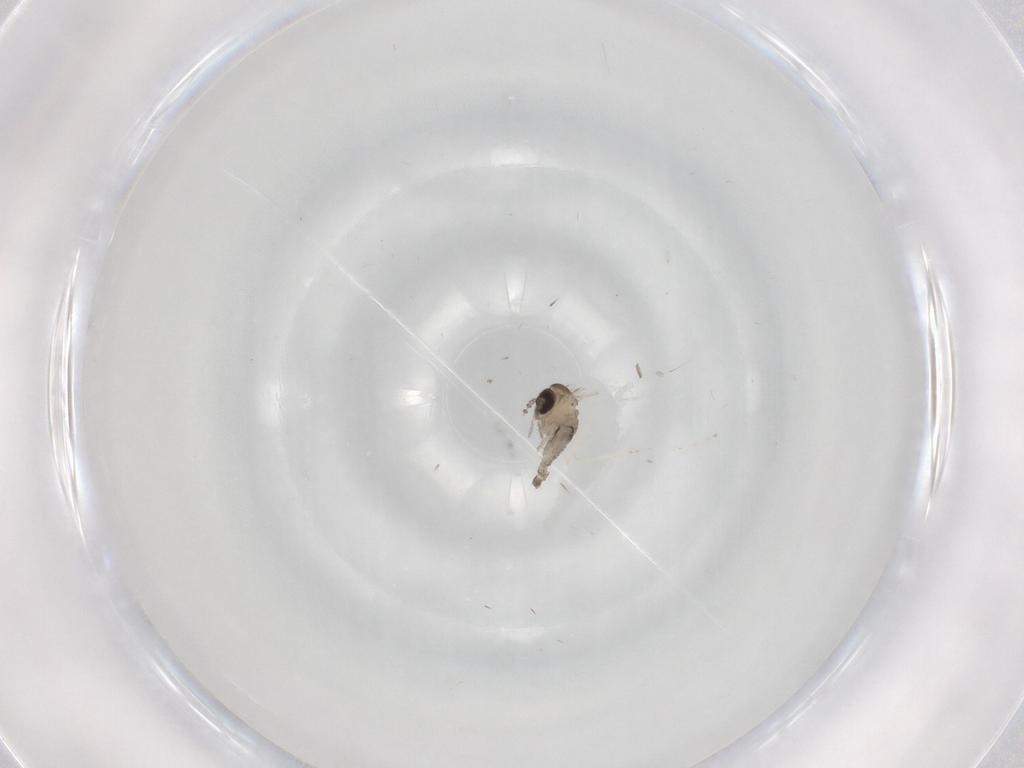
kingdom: Animalia
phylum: Arthropoda
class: Insecta
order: Diptera
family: Psychodidae
